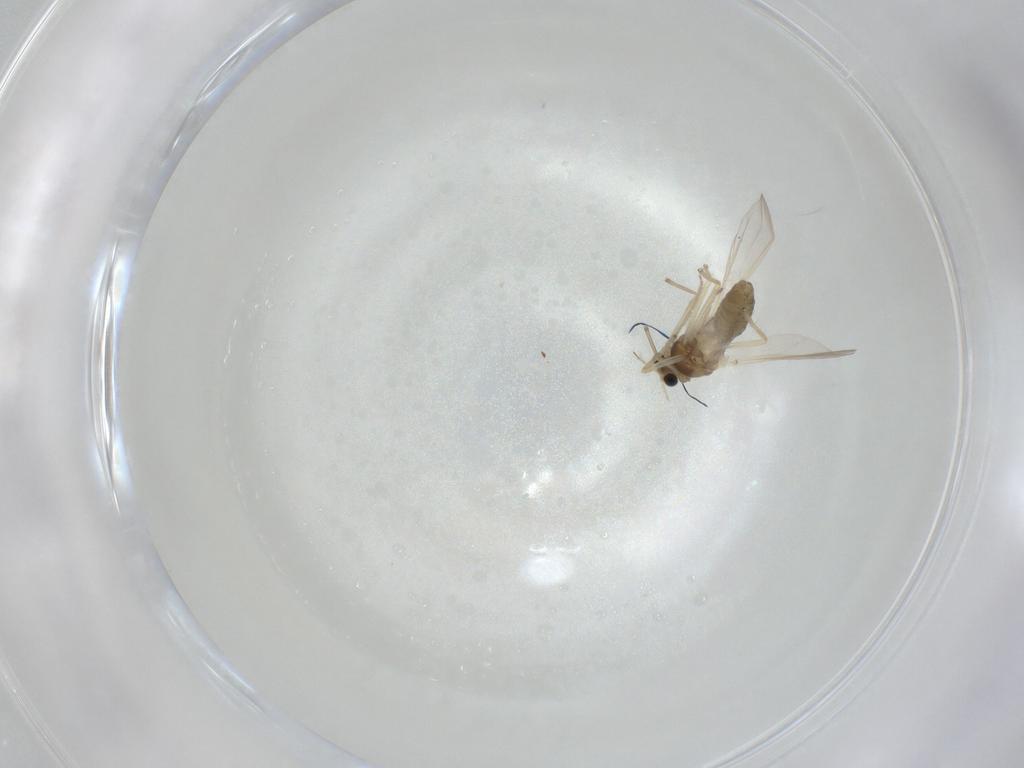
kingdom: Animalia
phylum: Arthropoda
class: Insecta
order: Diptera
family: Chironomidae
